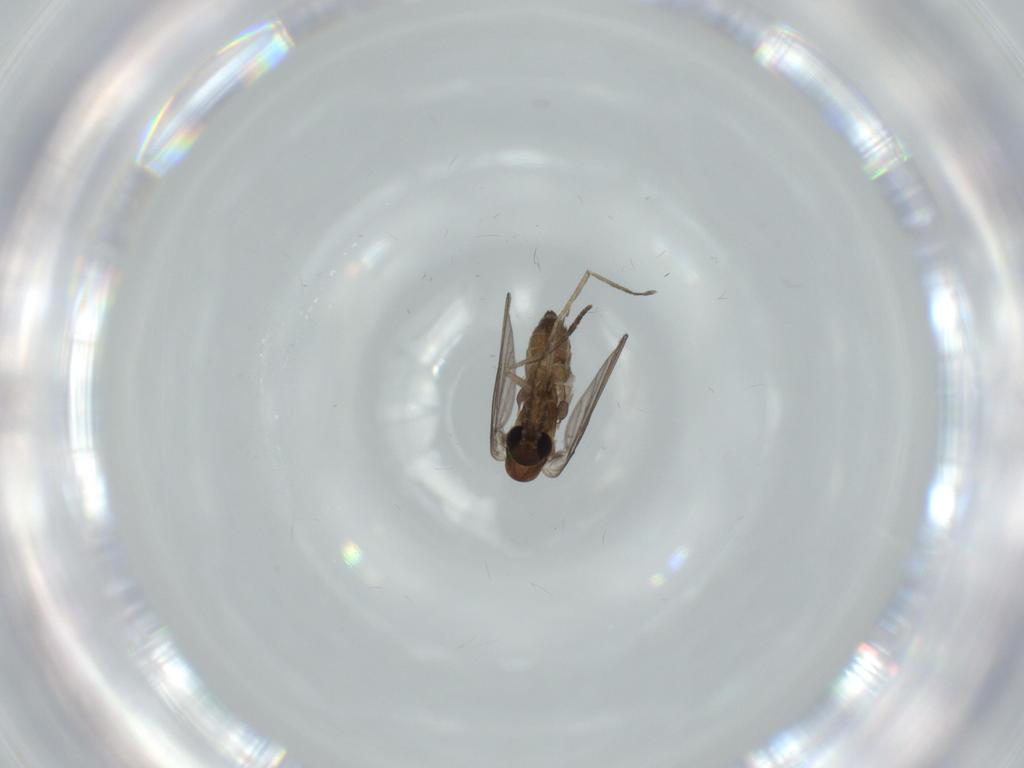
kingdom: Animalia
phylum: Arthropoda
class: Insecta
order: Diptera
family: Psychodidae
